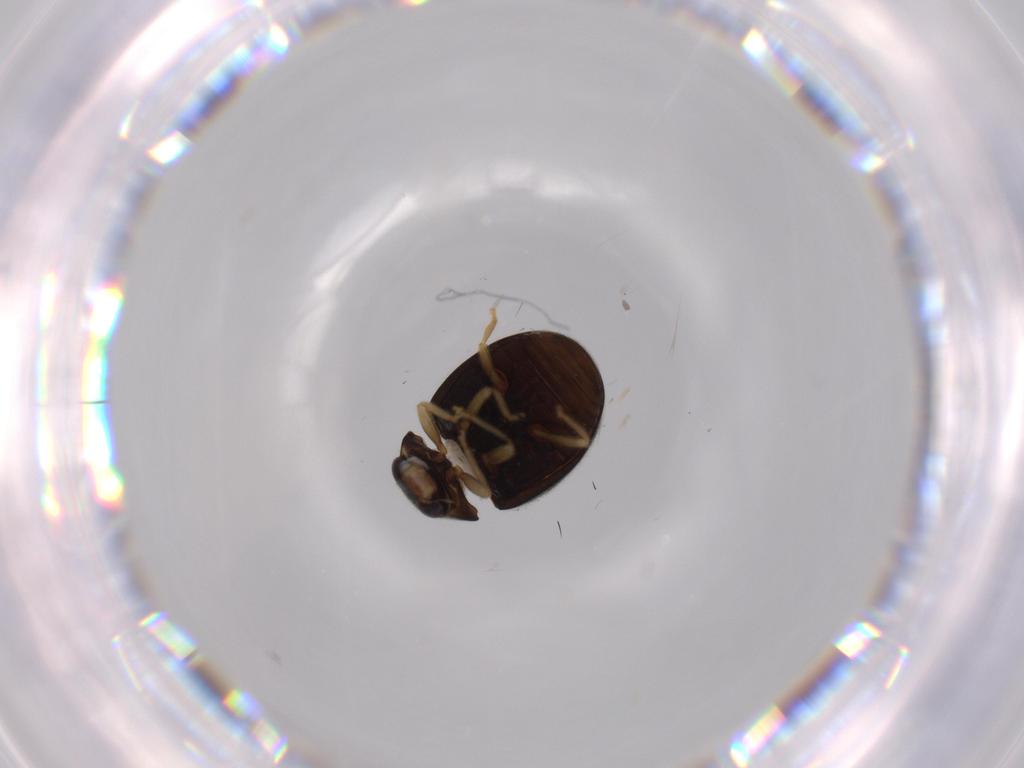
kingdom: Animalia
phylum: Arthropoda
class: Insecta
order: Coleoptera
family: Coccinellidae
